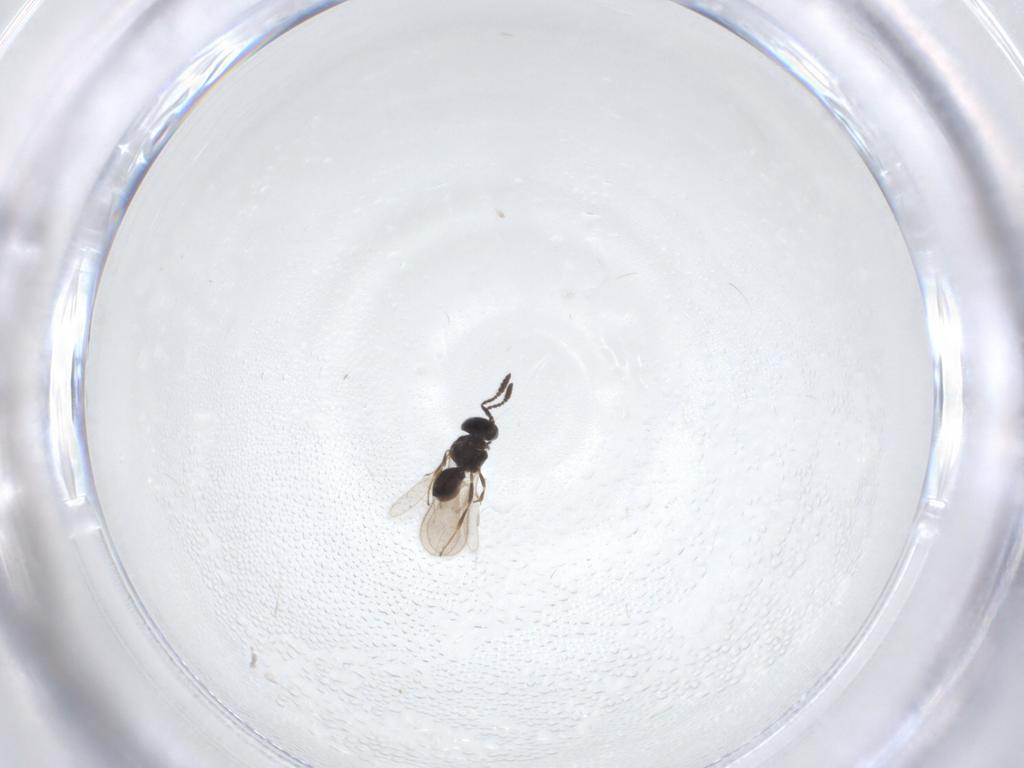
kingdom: Animalia
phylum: Arthropoda
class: Insecta
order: Hymenoptera
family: Scelionidae
